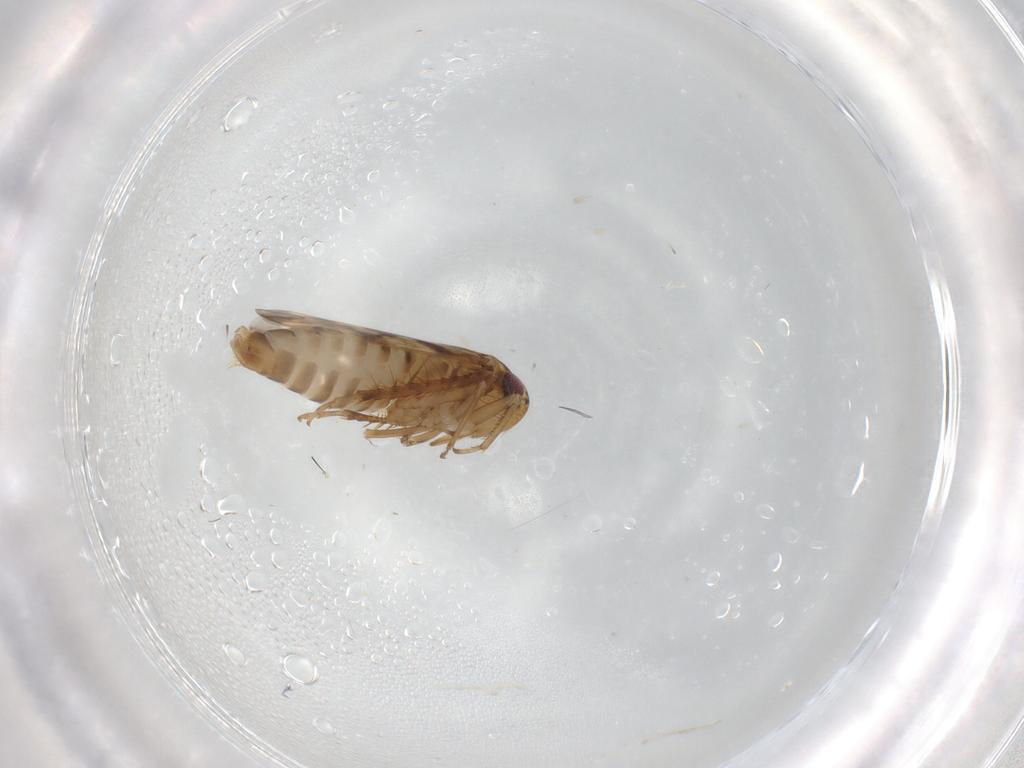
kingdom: Animalia
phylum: Arthropoda
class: Insecta
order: Hemiptera
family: Cicadellidae
